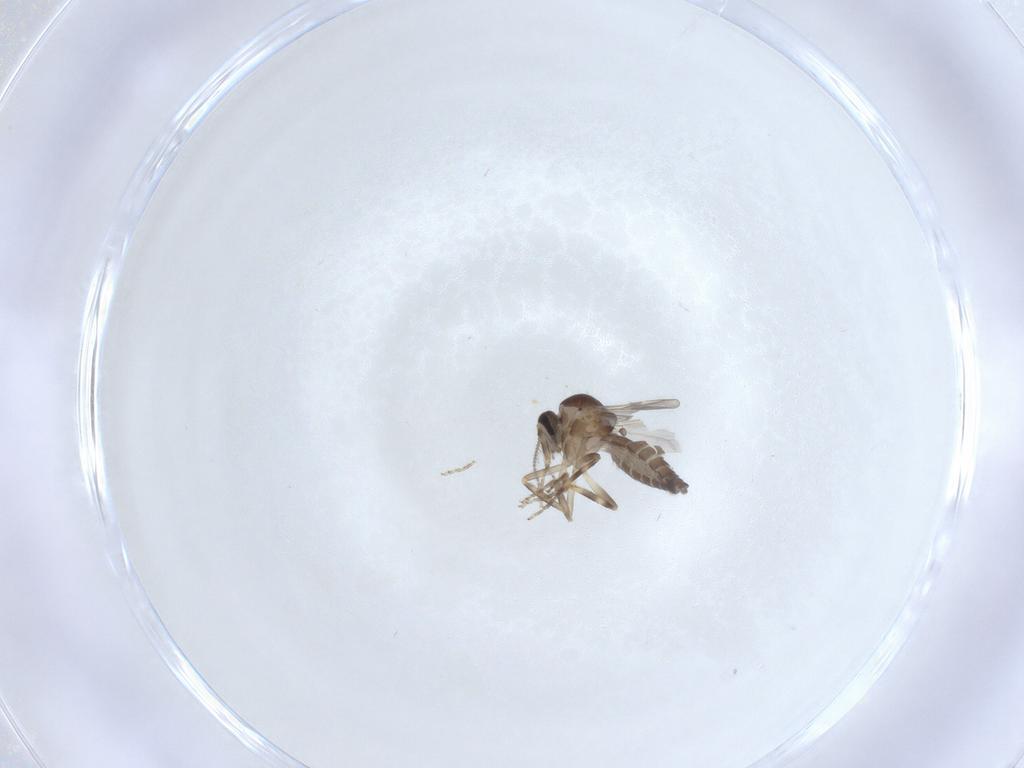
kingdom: Animalia
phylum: Arthropoda
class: Insecta
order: Diptera
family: Ceratopogonidae
